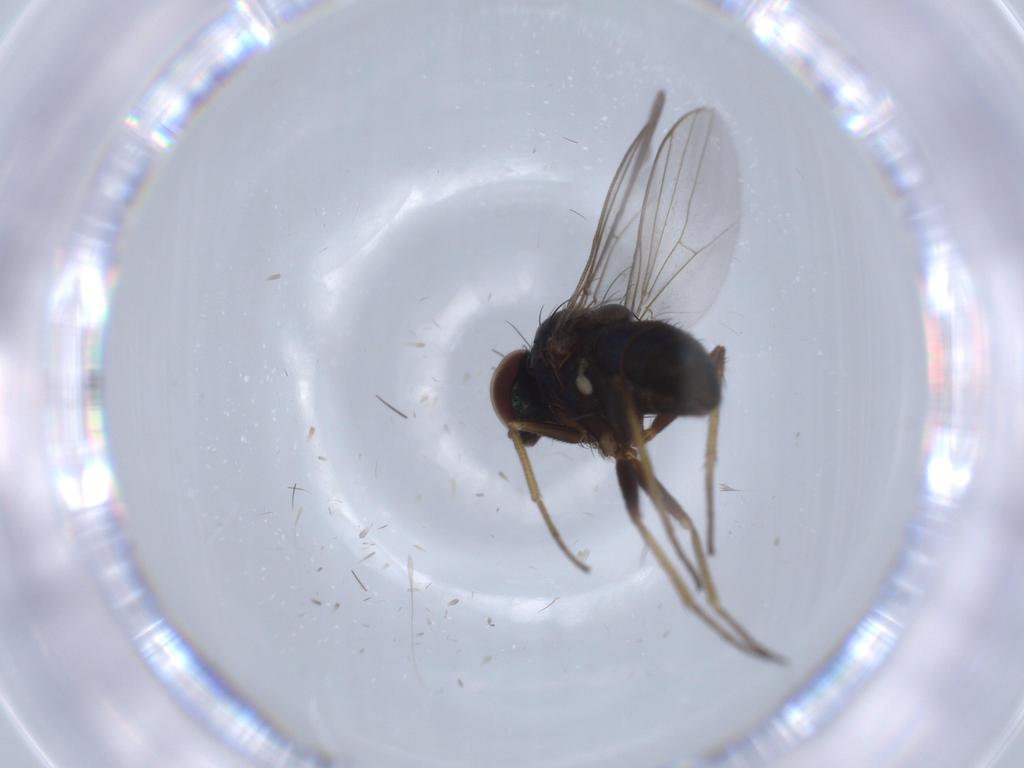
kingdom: Animalia
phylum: Arthropoda
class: Insecta
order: Diptera
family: Dolichopodidae
